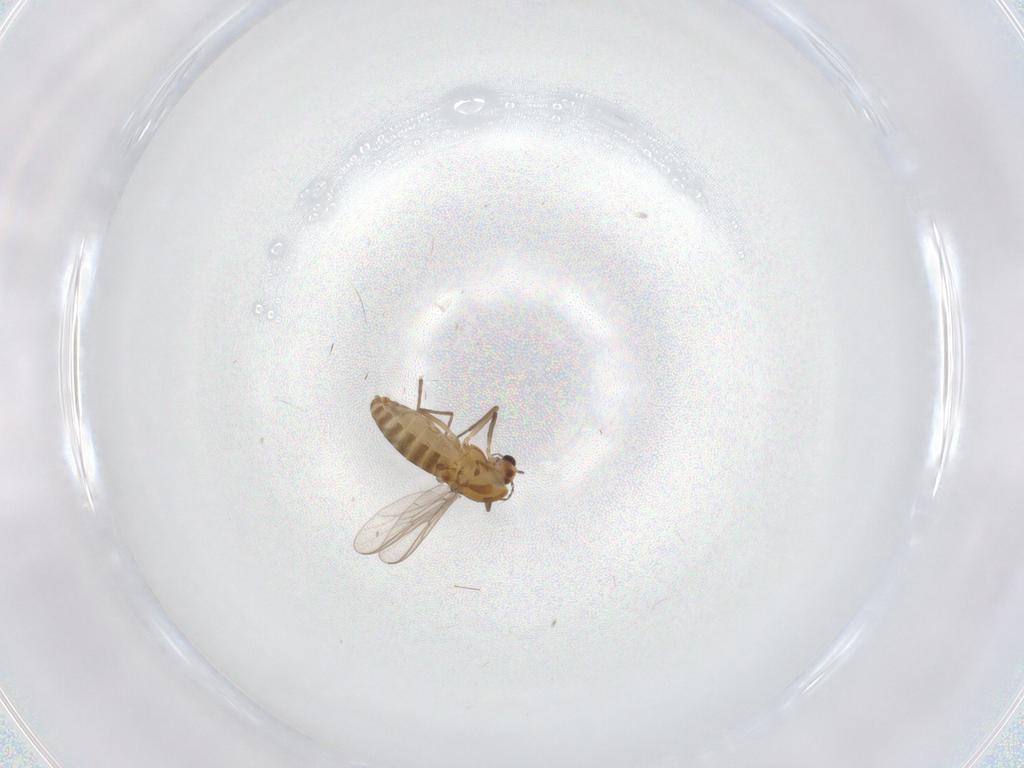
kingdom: Animalia
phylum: Arthropoda
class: Insecta
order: Diptera
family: Chironomidae
